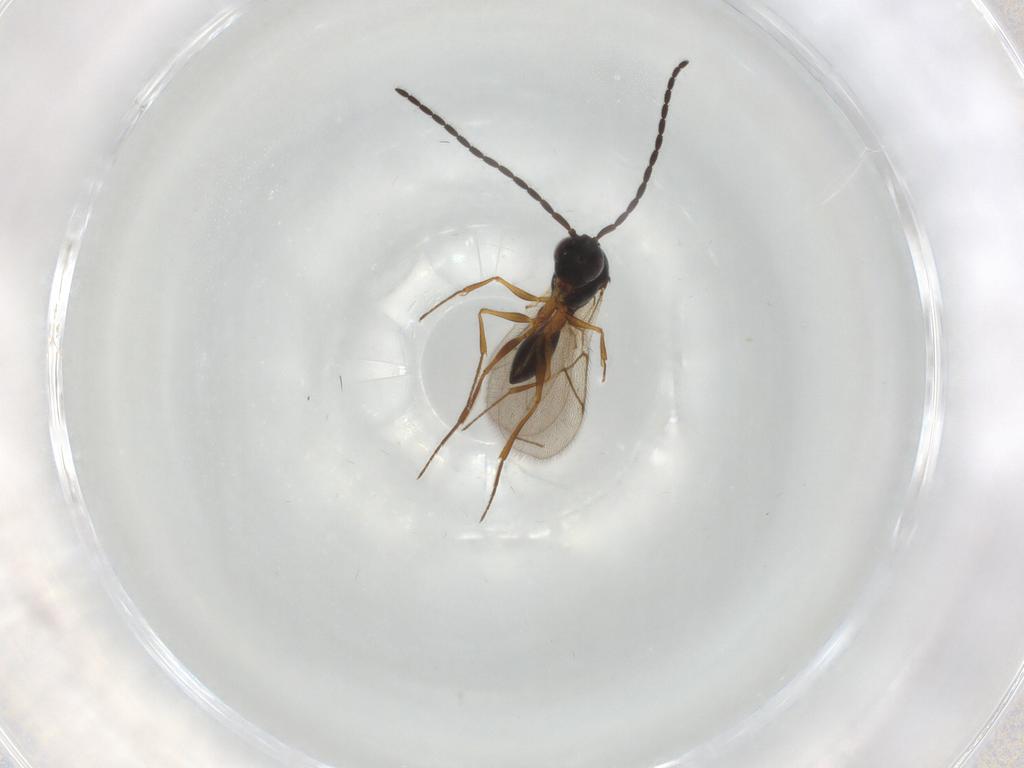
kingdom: Animalia
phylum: Arthropoda
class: Insecta
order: Hymenoptera
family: Figitidae
